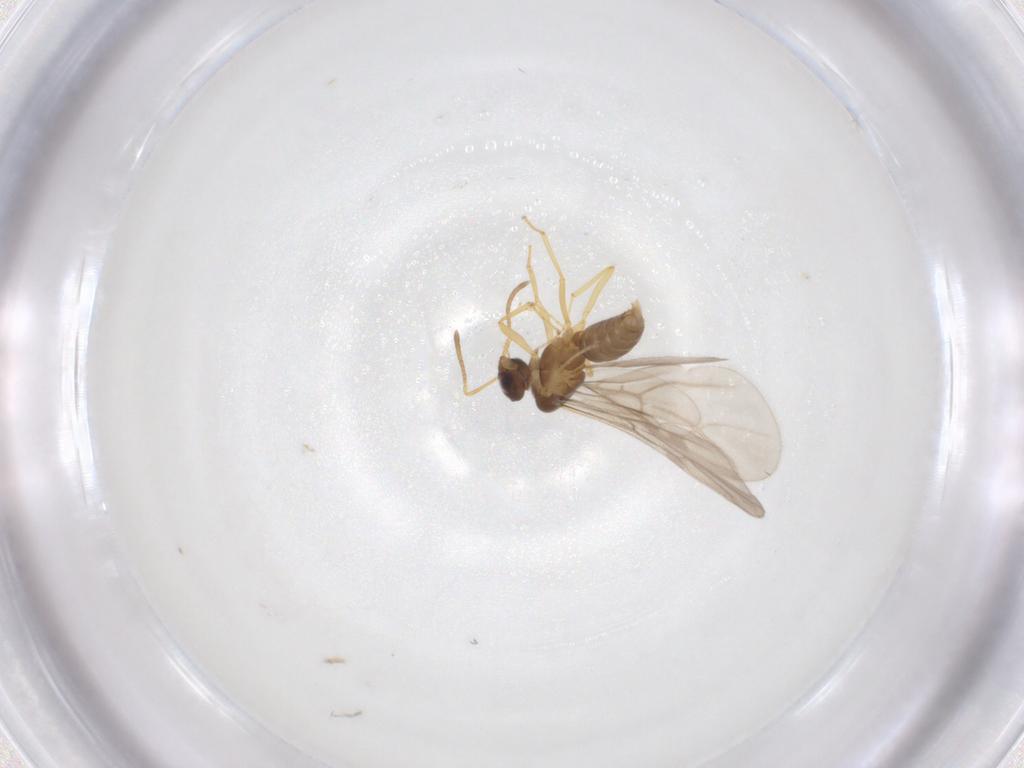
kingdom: Animalia
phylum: Arthropoda
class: Insecta
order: Hymenoptera
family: Formicidae
